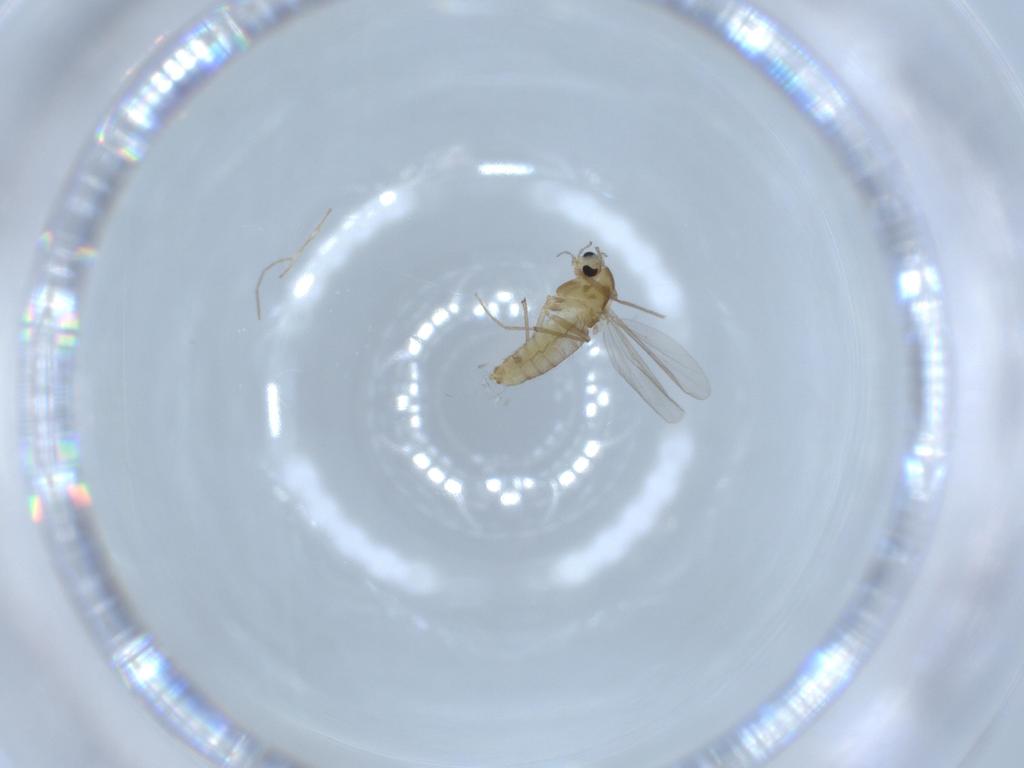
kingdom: Animalia
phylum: Arthropoda
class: Insecta
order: Diptera
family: Chironomidae
